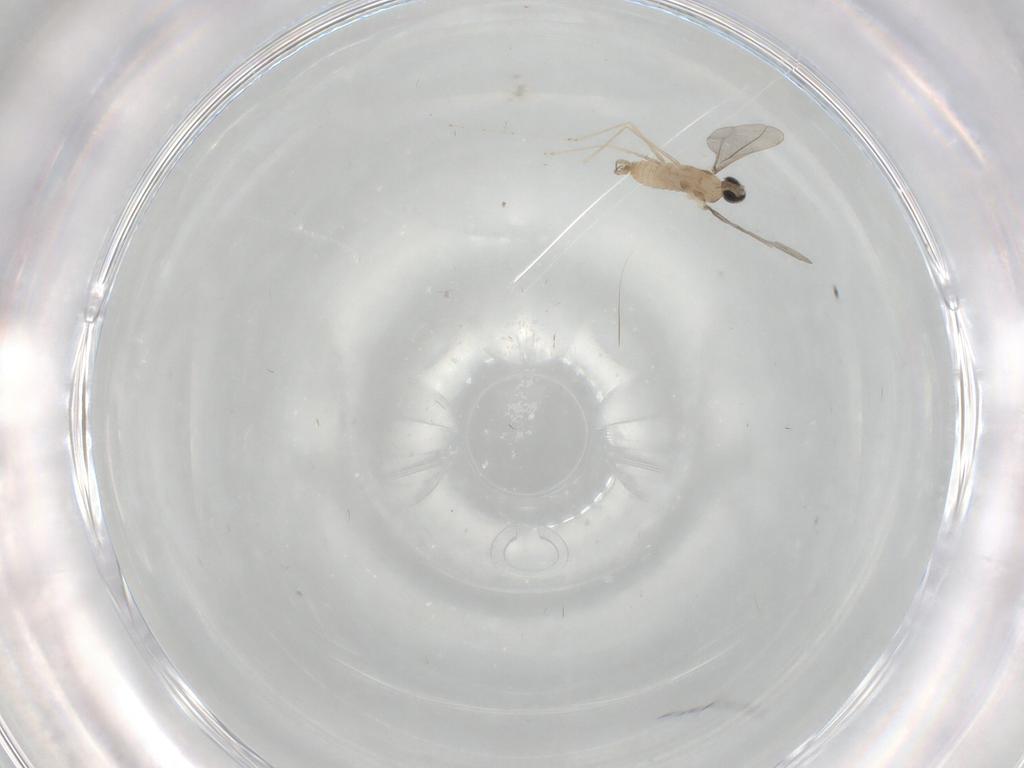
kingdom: Animalia
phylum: Arthropoda
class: Insecta
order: Diptera
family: Cecidomyiidae
